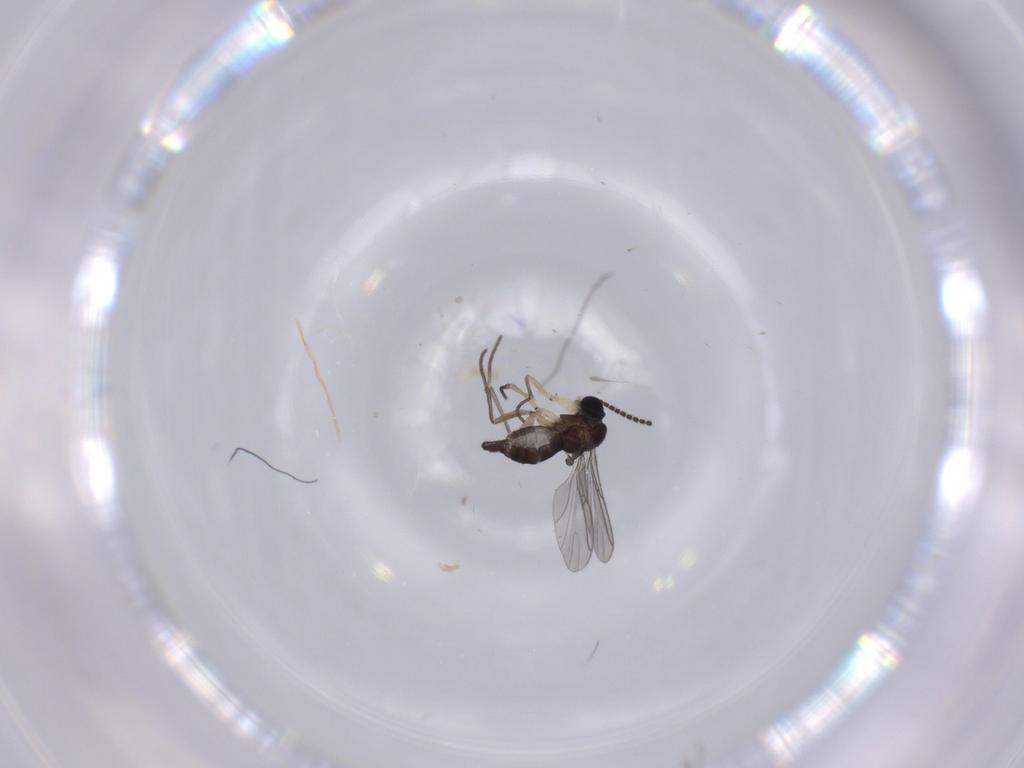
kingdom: Animalia
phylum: Arthropoda
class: Insecta
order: Diptera
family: Sciaridae
